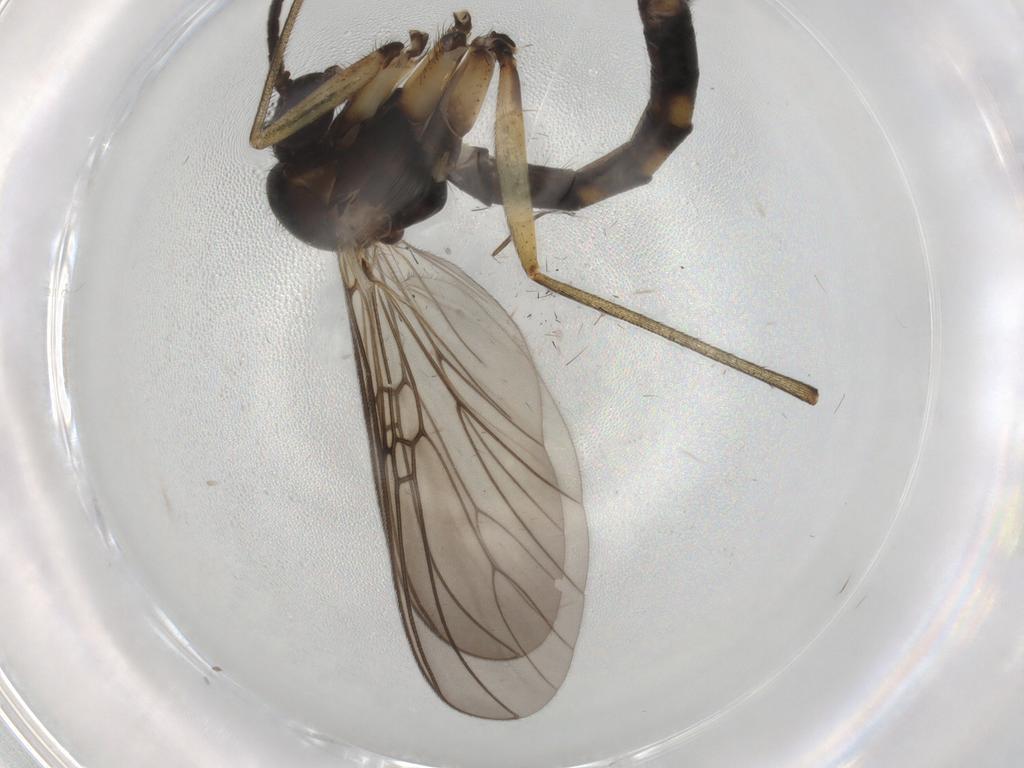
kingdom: Animalia
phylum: Arthropoda
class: Insecta
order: Diptera
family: Mycetophilidae
